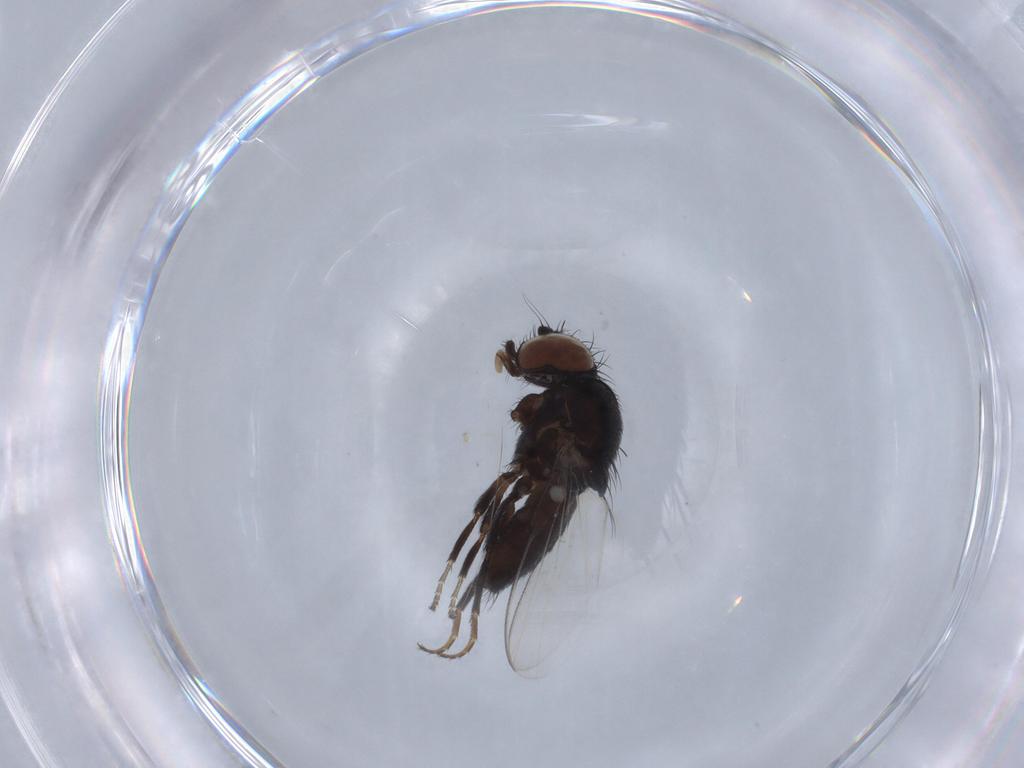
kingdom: Animalia
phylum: Arthropoda
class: Insecta
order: Diptera
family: Milichiidae
